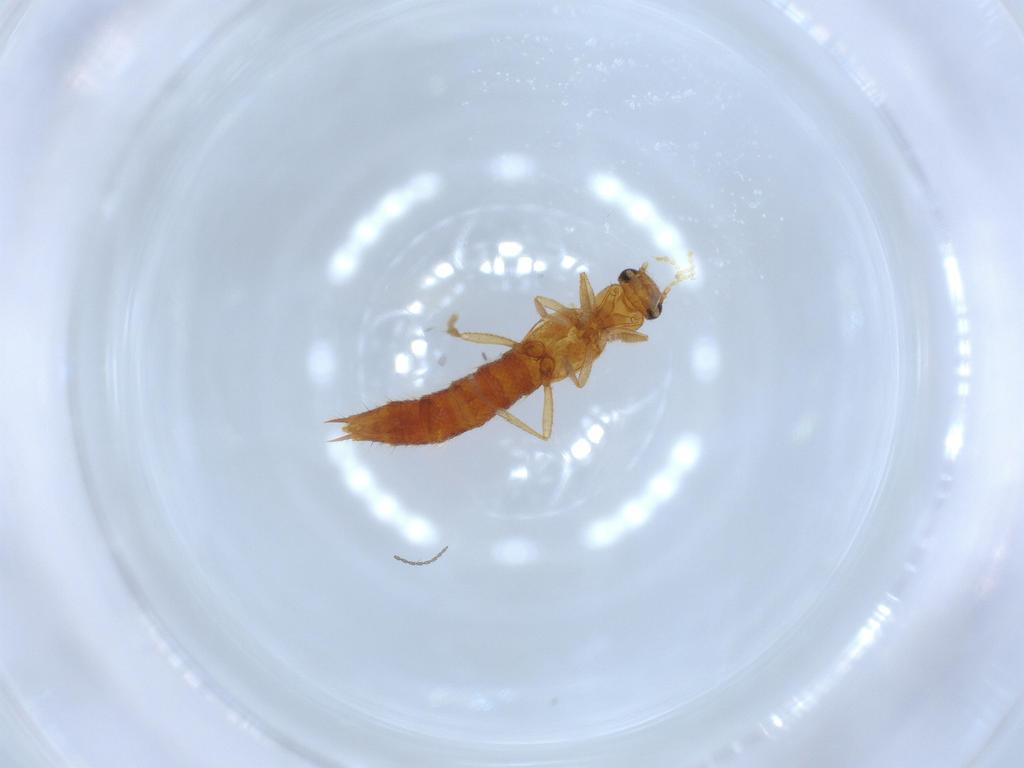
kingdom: Animalia
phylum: Arthropoda
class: Insecta
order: Coleoptera
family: Staphylinidae
